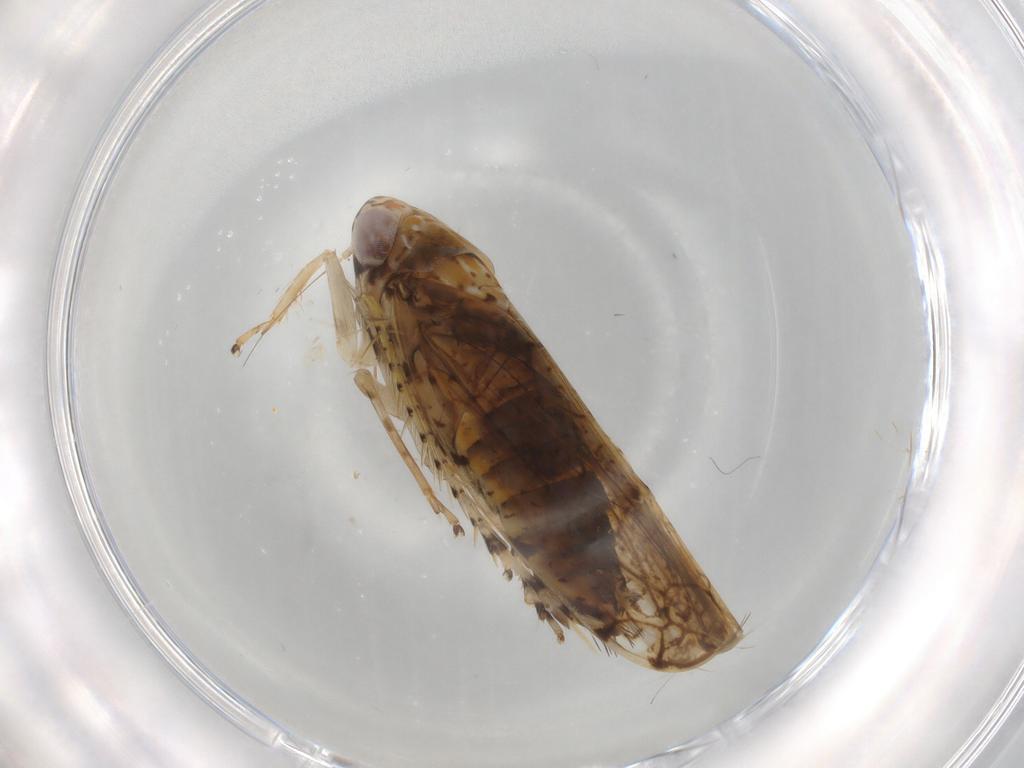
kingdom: Animalia
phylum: Arthropoda
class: Insecta
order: Hemiptera
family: Cicadellidae
